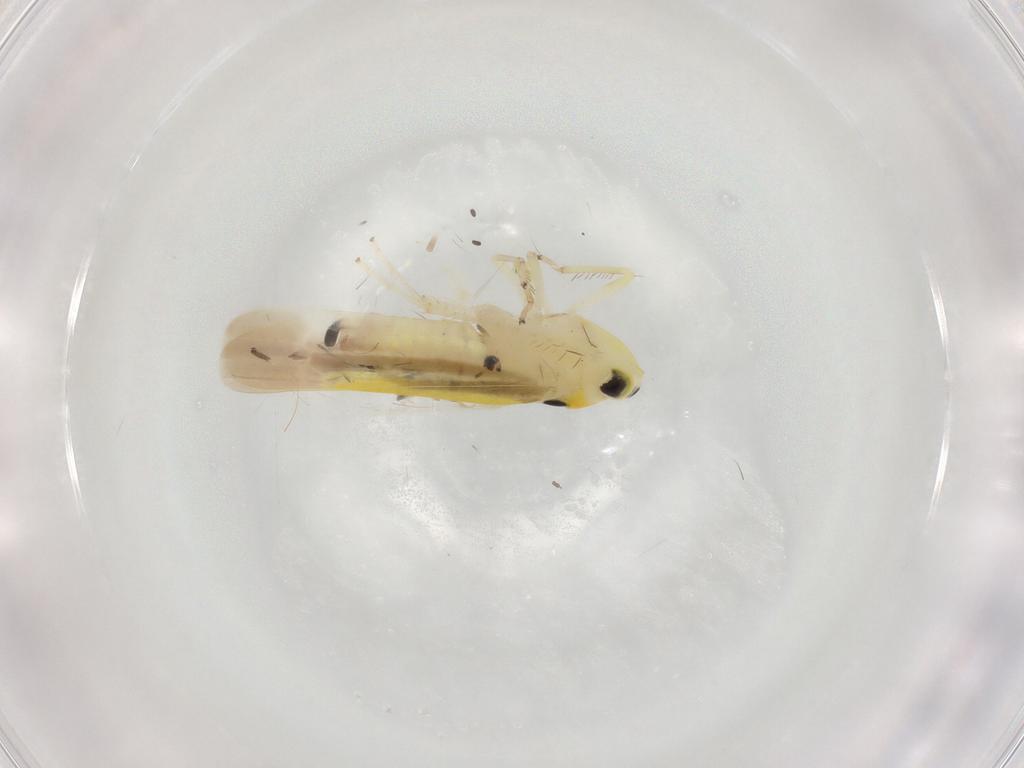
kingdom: Animalia
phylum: Arthropoda
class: Insecta
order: Hemiptera
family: Cicadellidae
